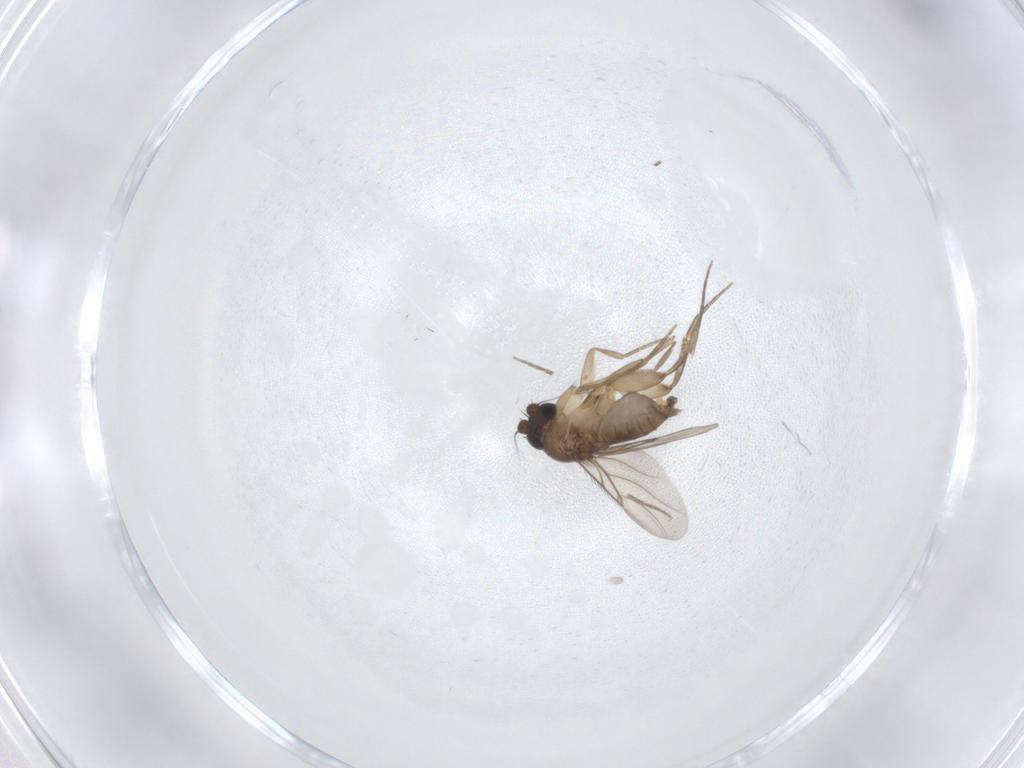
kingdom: Animalia
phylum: Arthropoda
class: Insecta
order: Diptera
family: Phoridae
